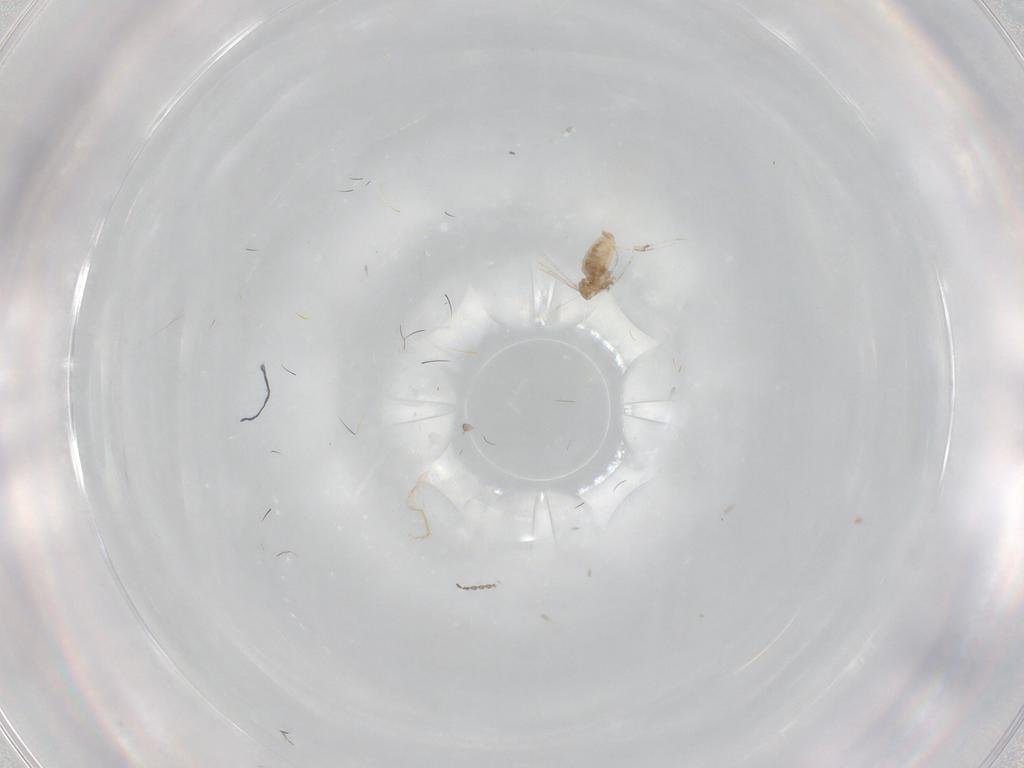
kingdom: Animalia
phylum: Arthropoda
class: Insecta
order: Diptera
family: Cecidomyiidae
